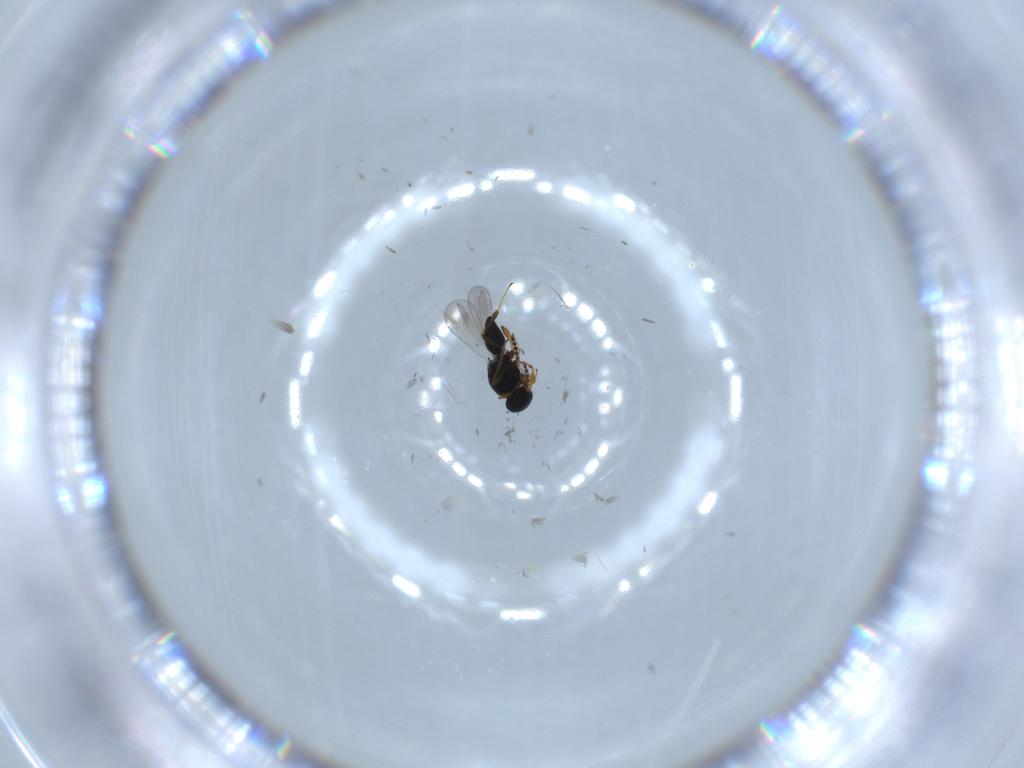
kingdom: Animalia
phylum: Arthropoda
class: Insecta
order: Hymenoptera
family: Platygastridae
